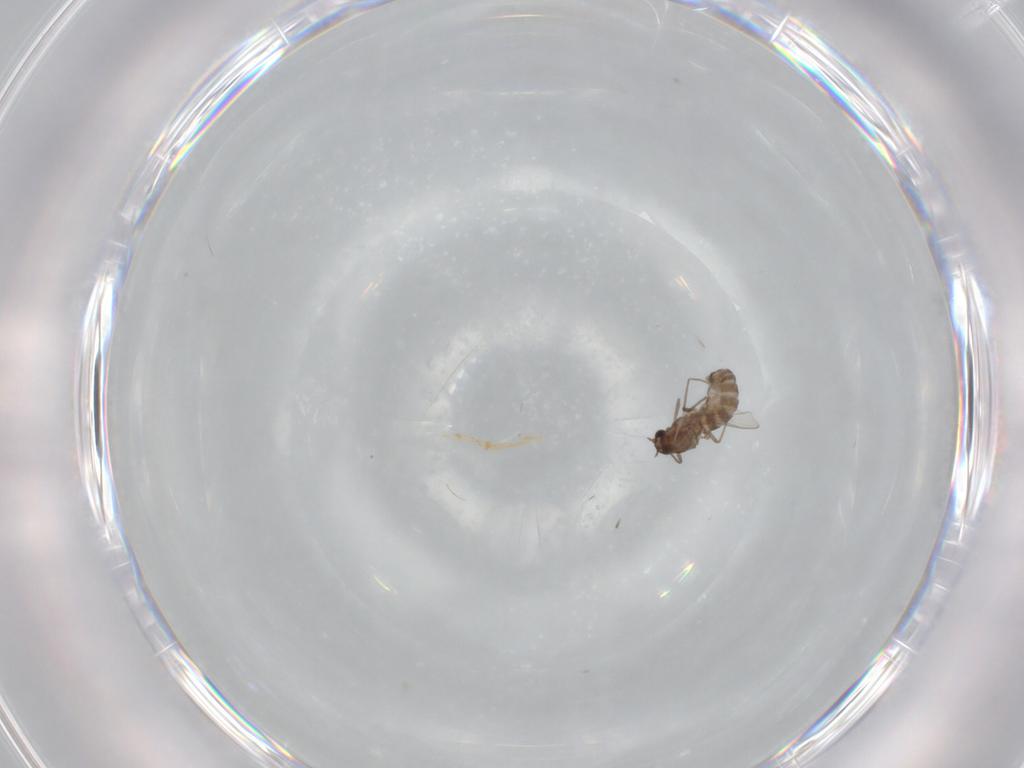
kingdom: Animalia
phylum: Arthropoda
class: Insecta
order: Diptera
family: Chironomidae
